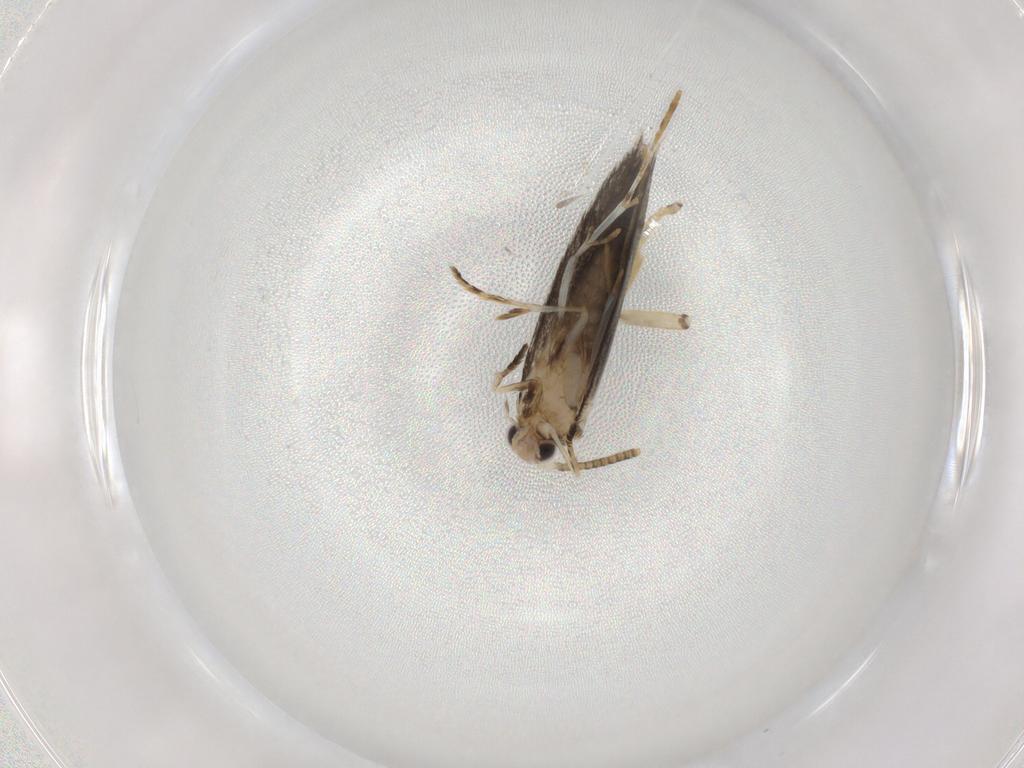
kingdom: Animalia
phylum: Arthropoda
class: Insecta
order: Lepidoptera
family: Tineidae
